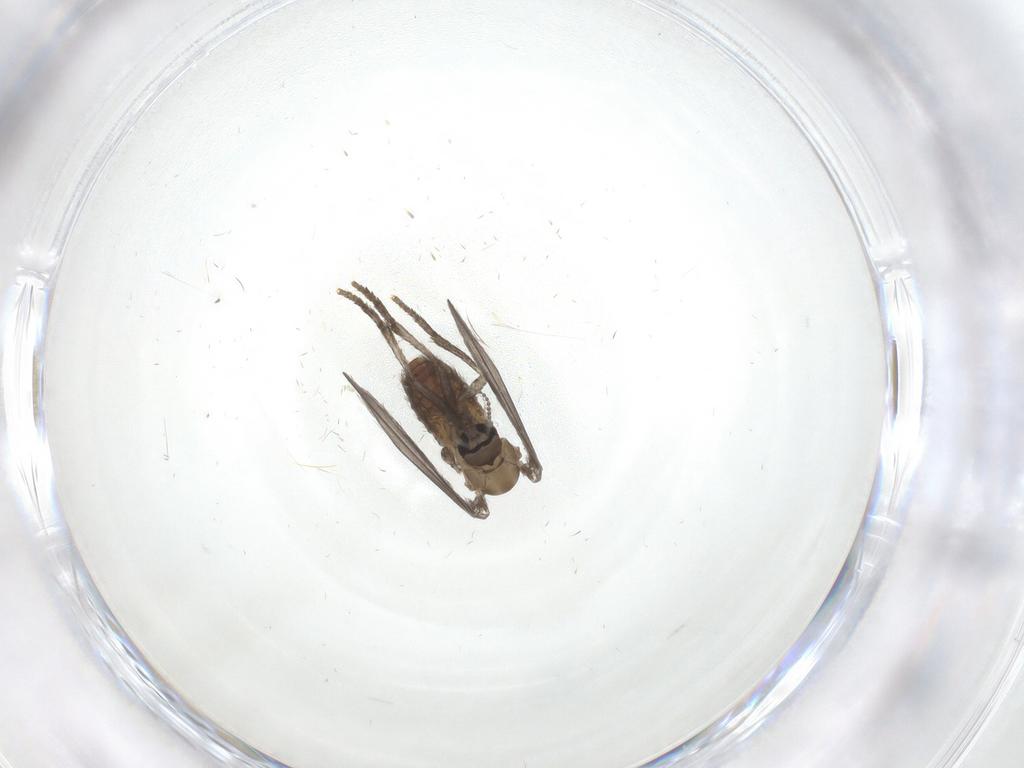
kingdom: Animalia
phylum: Arthropoda
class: Insecta
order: Diptera
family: Psychodidae
